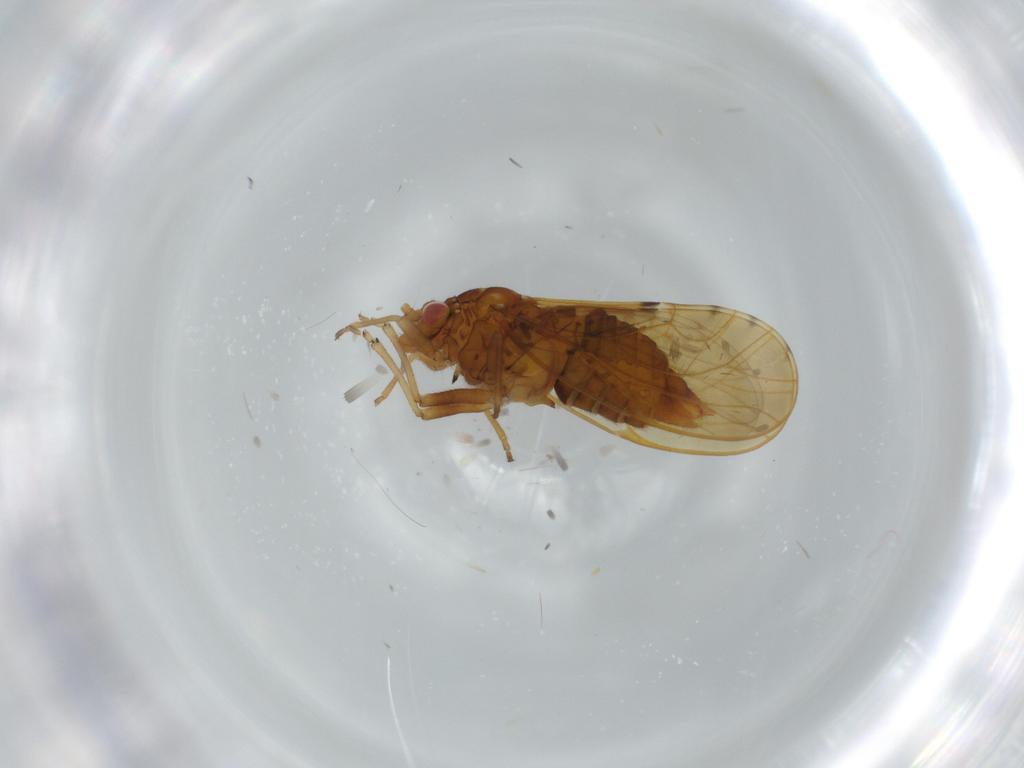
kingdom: Animalia
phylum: Arthropoda
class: Insecta
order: Hemiptera
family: Psylloidea_incertae_sedis
